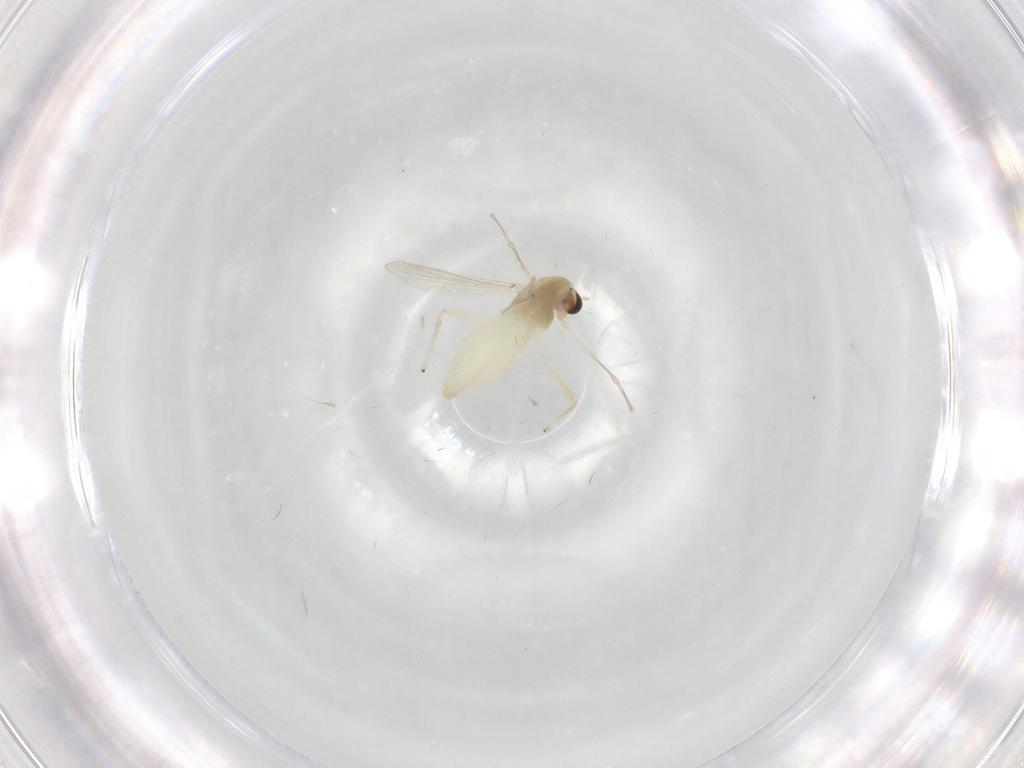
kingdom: Animalia
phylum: Arthropoda
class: Insecta
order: Diptera
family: Chironomidae
